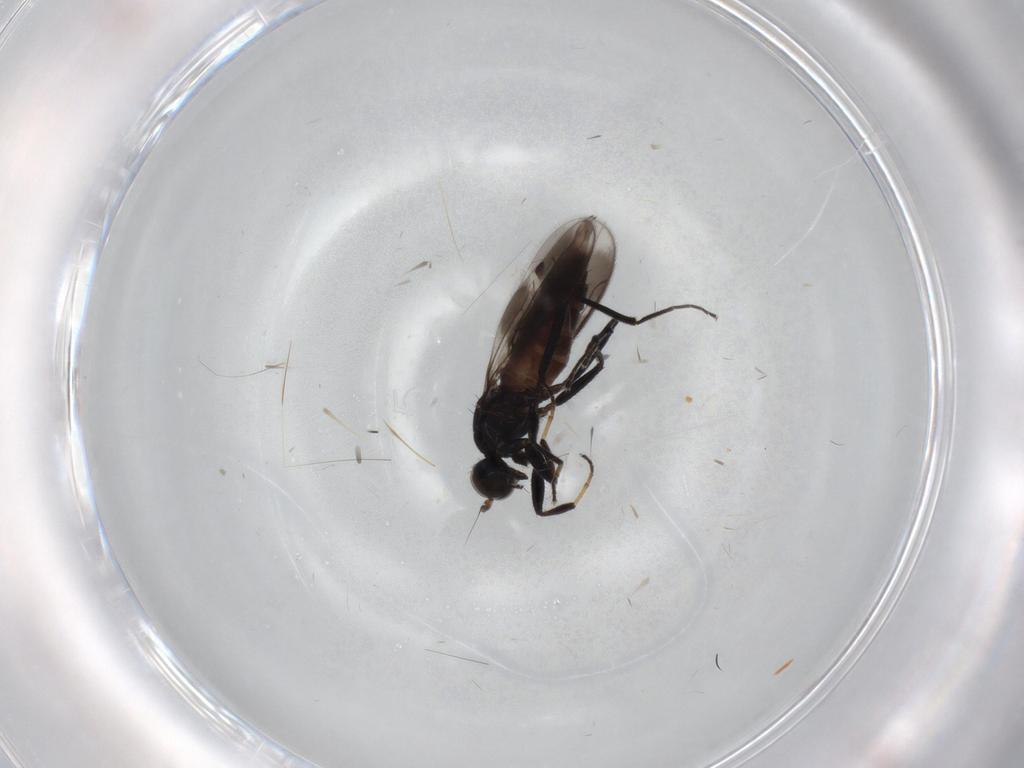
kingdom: Animalia
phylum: Arthropoda
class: Insecta
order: Diptera
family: Hybotidae
